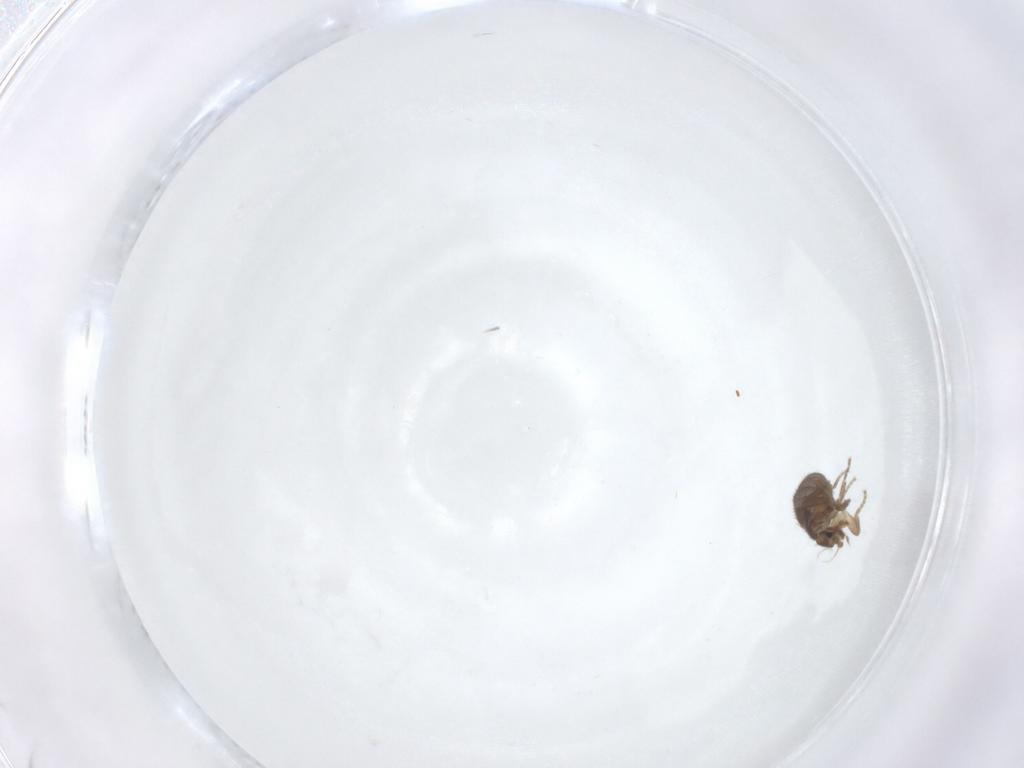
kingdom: Animalia
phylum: Arthropoda
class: Insecta
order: Diptera
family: Phoridae
